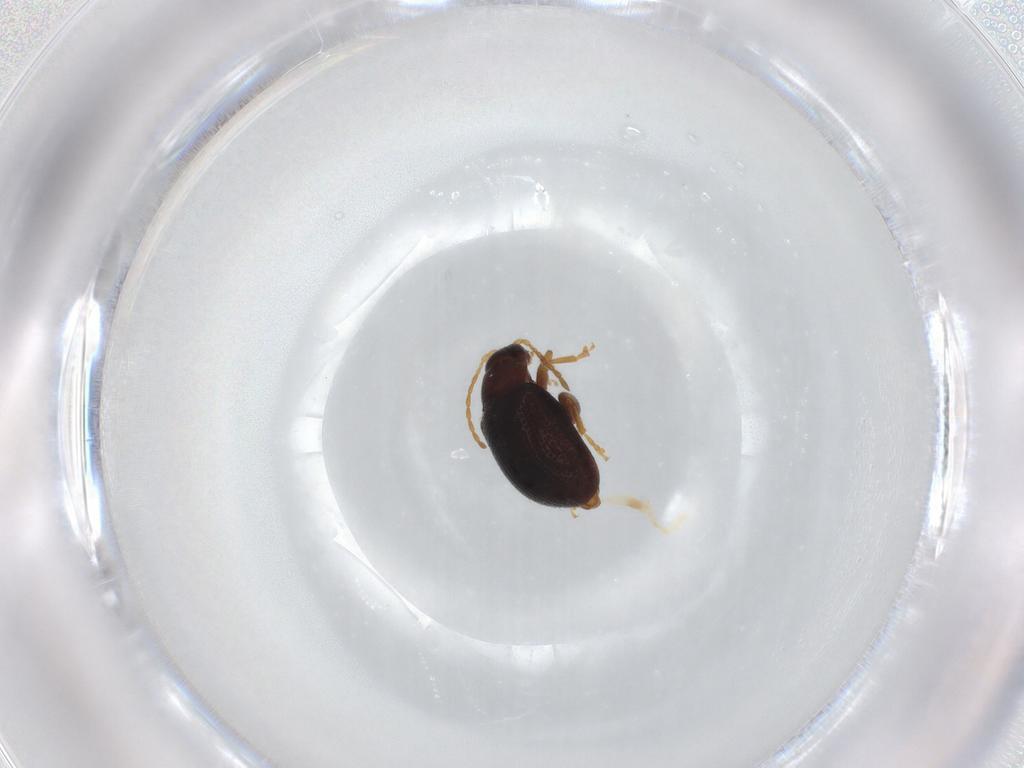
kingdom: Animalia
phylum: Arthropoda
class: Insecta
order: Coleoptera
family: Chrysomelidae
